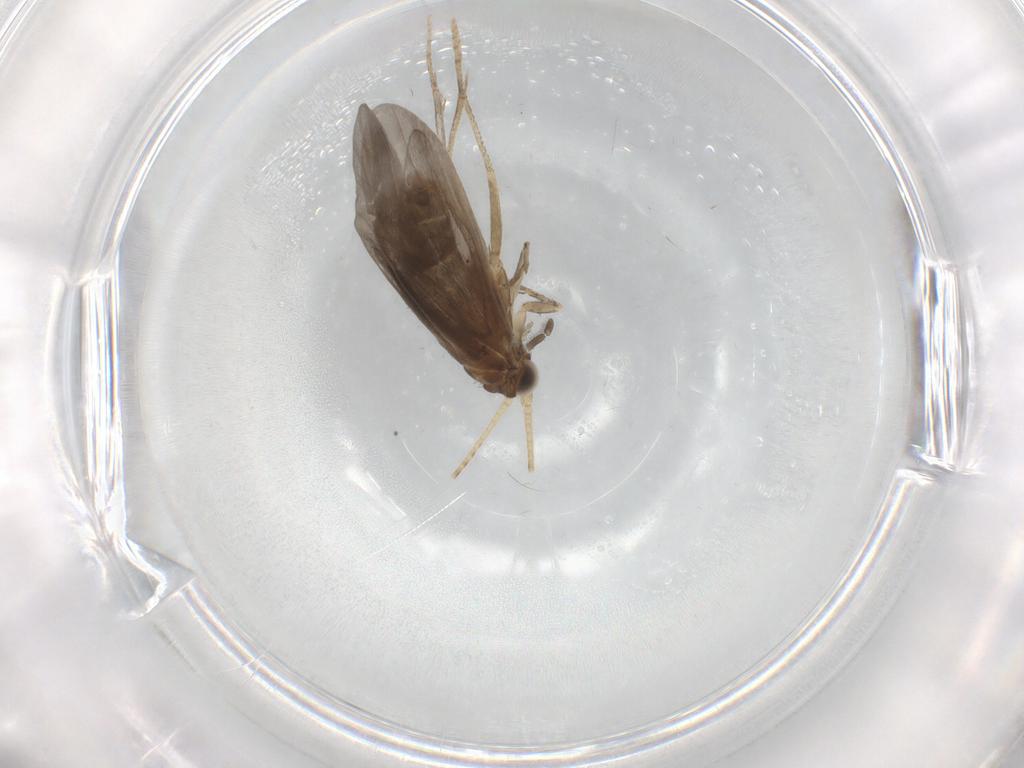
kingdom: Animalia
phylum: Arthropoda
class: Insecta
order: Trichoptera
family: Helicopsychidae
